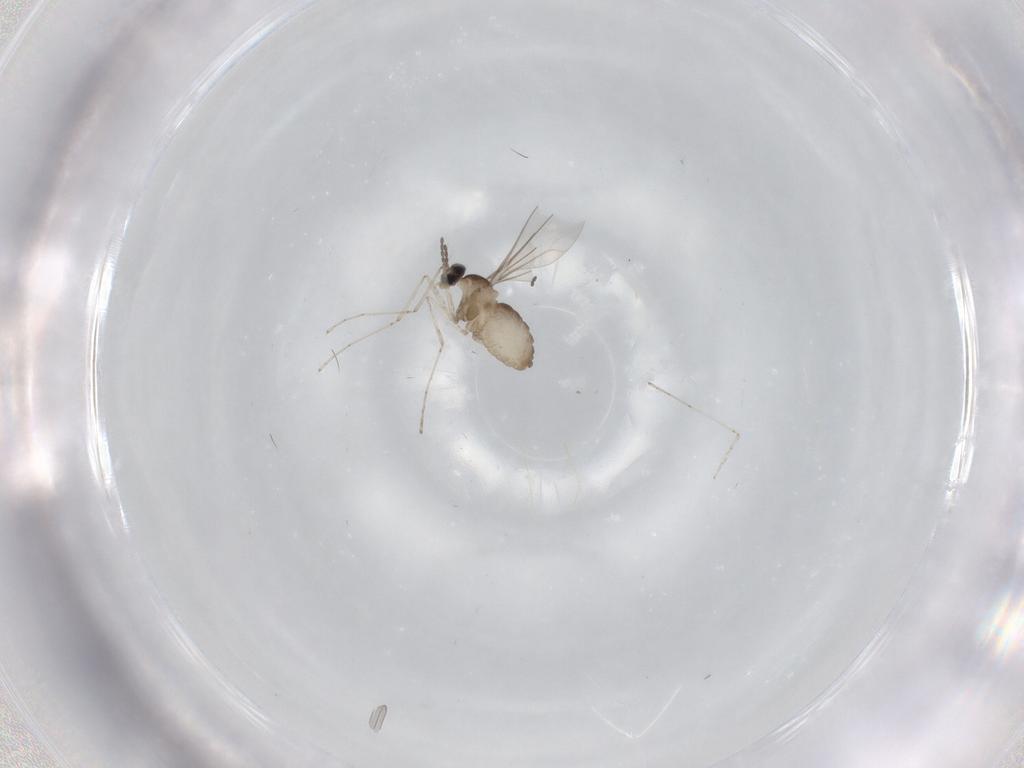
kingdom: Animalia
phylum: Arthropoda
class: Insecta
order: Diptera
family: Cecidomyiidae
